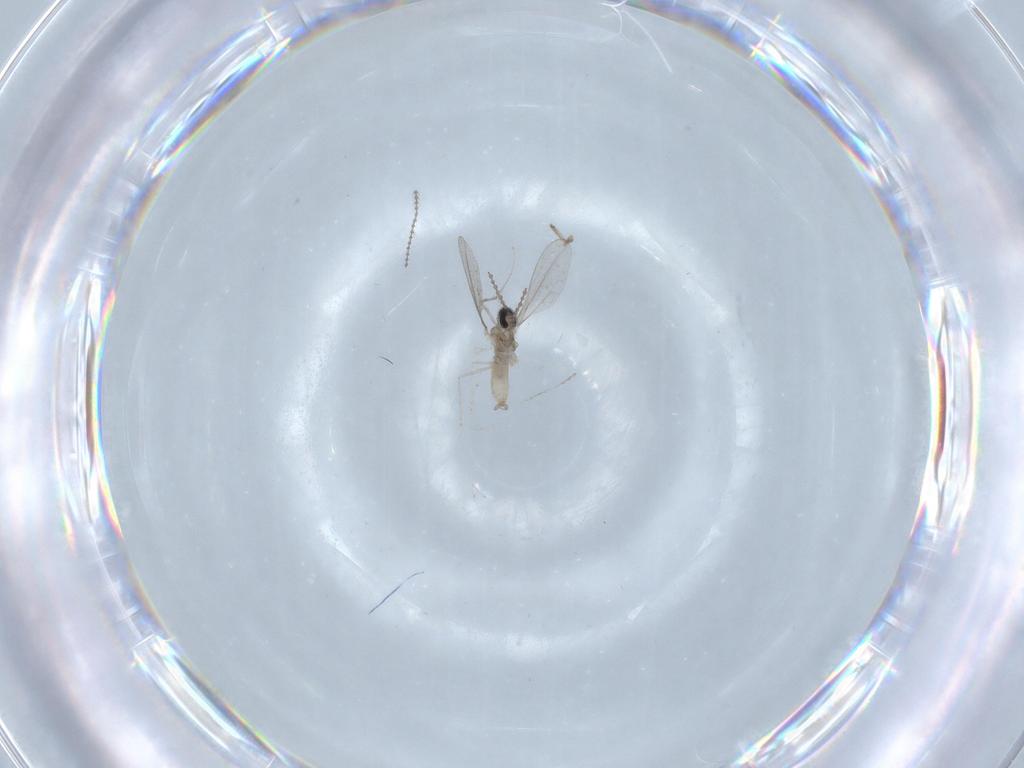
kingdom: Animalia
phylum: Arthropoda
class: Insecta
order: Diptera
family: Cecidomyiidae
